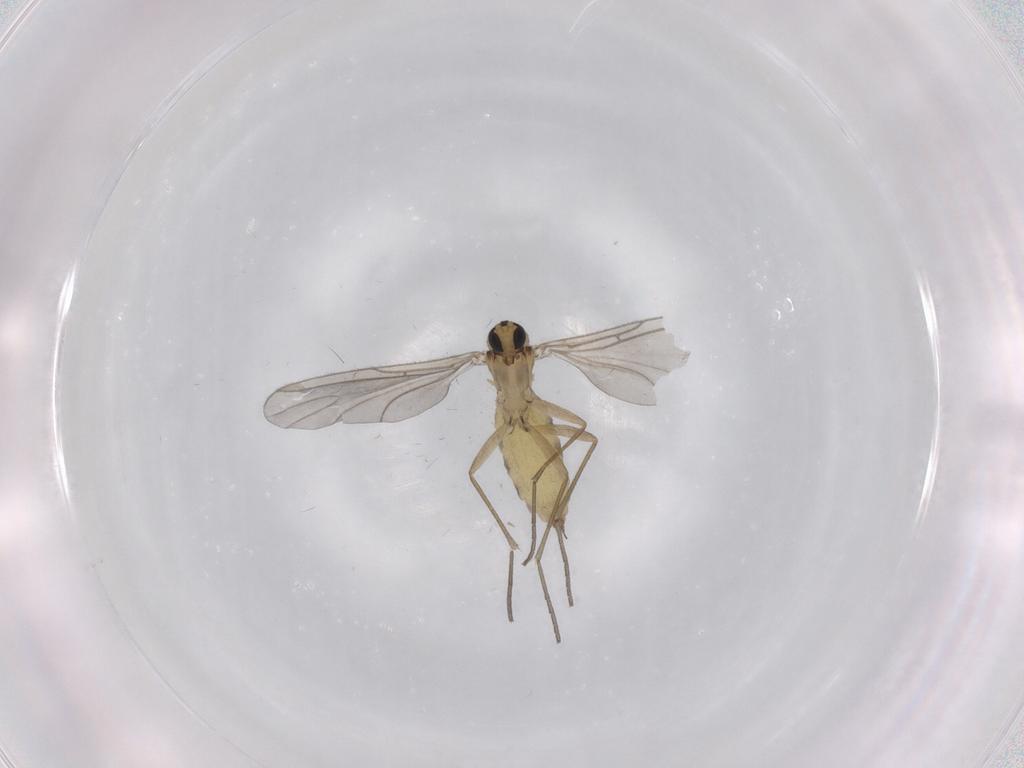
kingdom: Animalia
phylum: Arthropoda
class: Insecta
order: Diptera
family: Sciaridae
